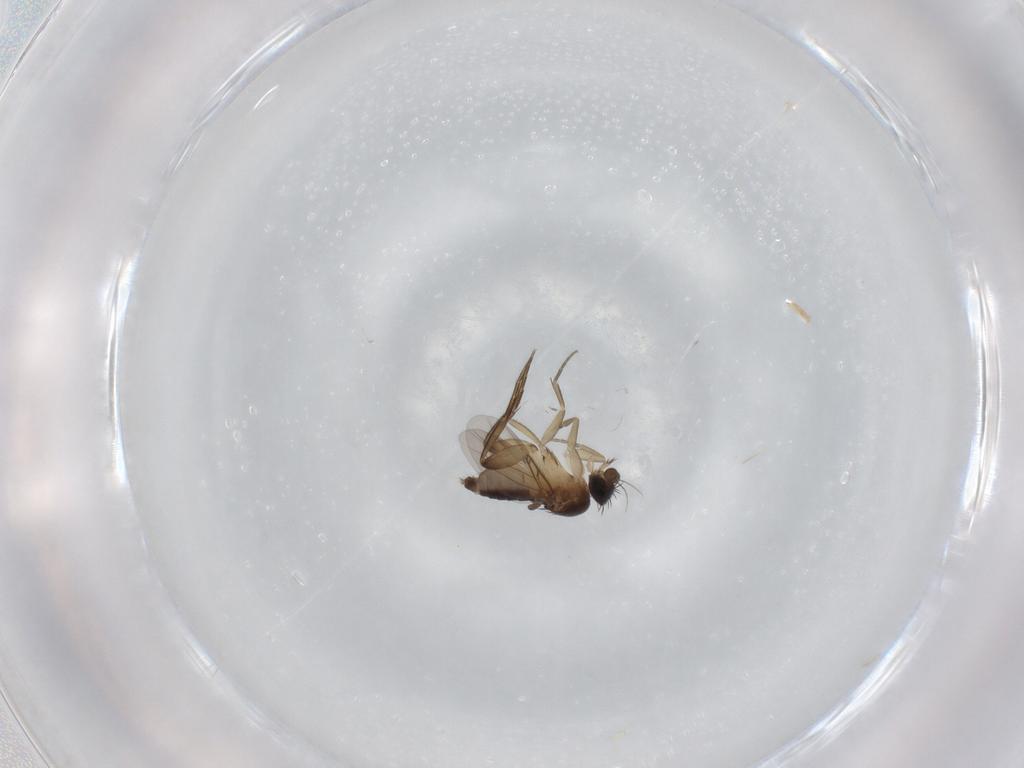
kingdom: Animalia
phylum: Arthropoda
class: Insecta
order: Diptera
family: Phoridae
